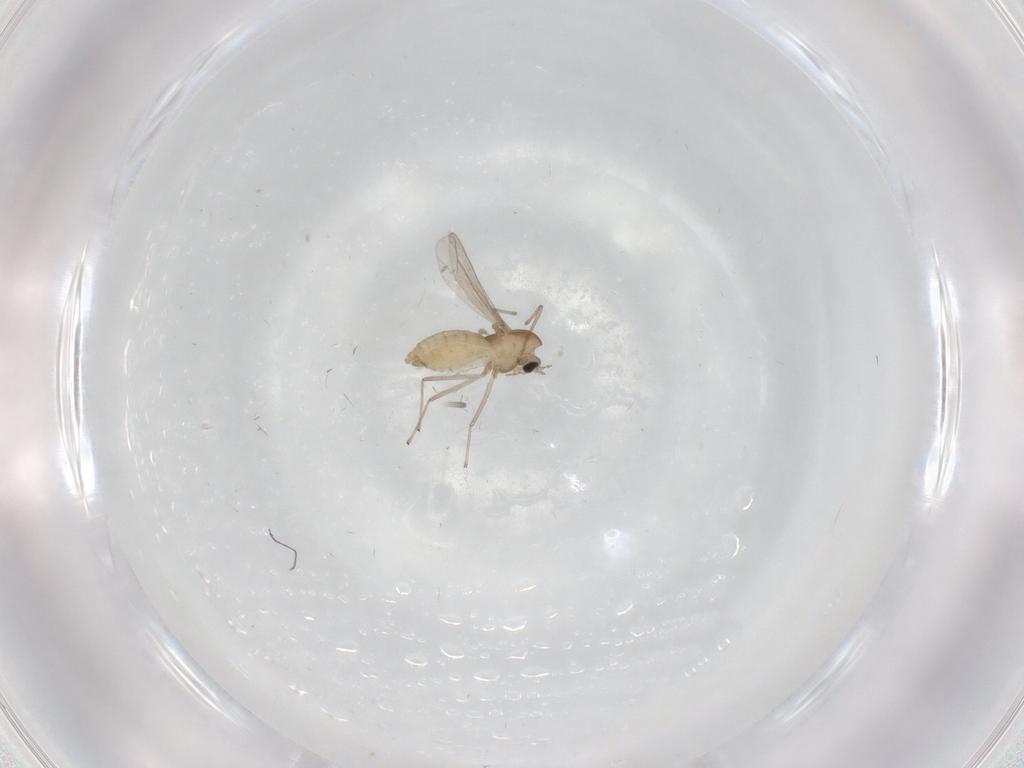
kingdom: Animalia
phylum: Arthropoda
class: Insecta
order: Diptera
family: Chironomidae
